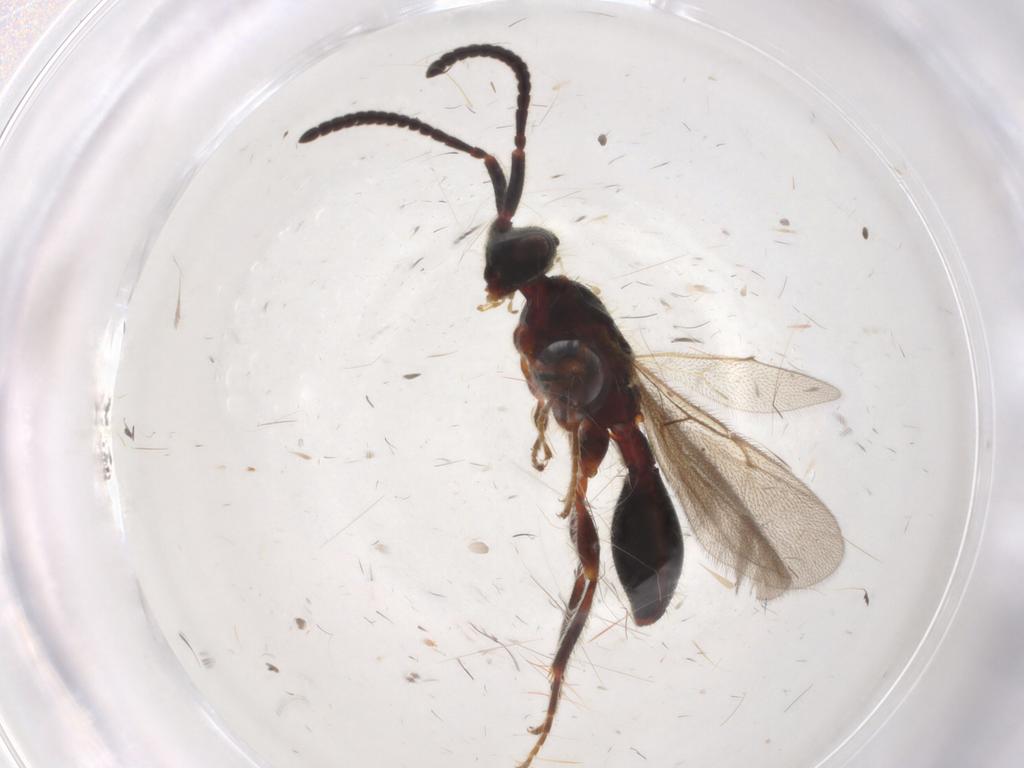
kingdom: Animalia
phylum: Arthropoda
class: Insecta
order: Hymenoptera
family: Diapriidae
